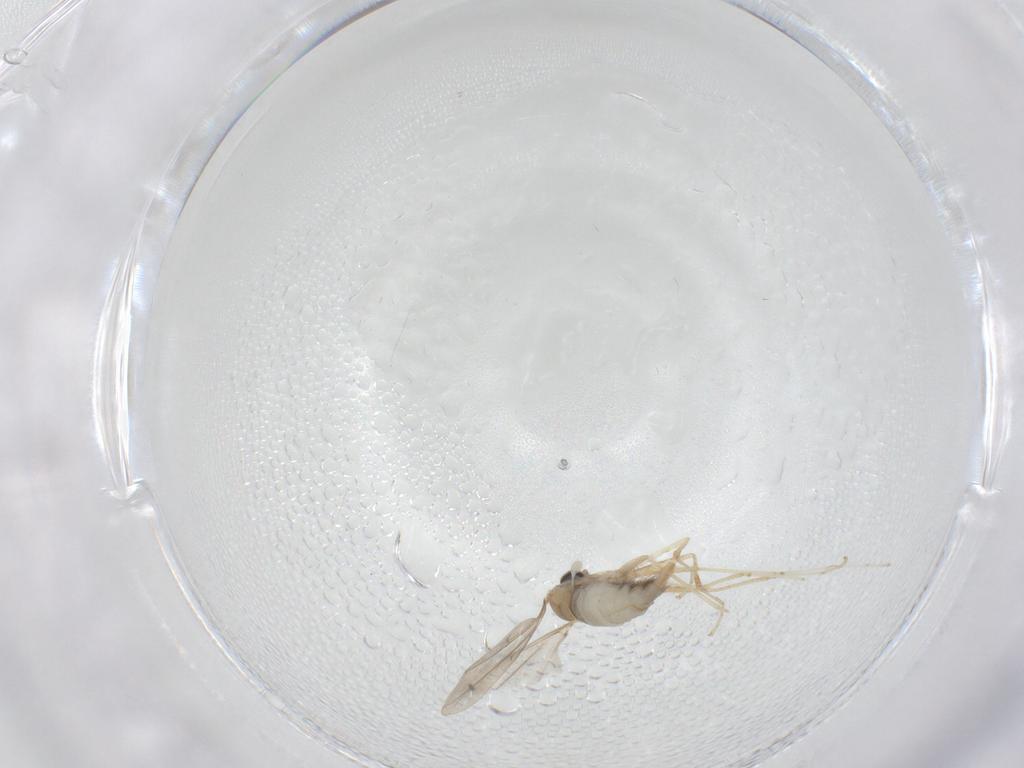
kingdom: Animalia
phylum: Arthropoda
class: Insecta
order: Diptera
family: Cecidomyiidae
